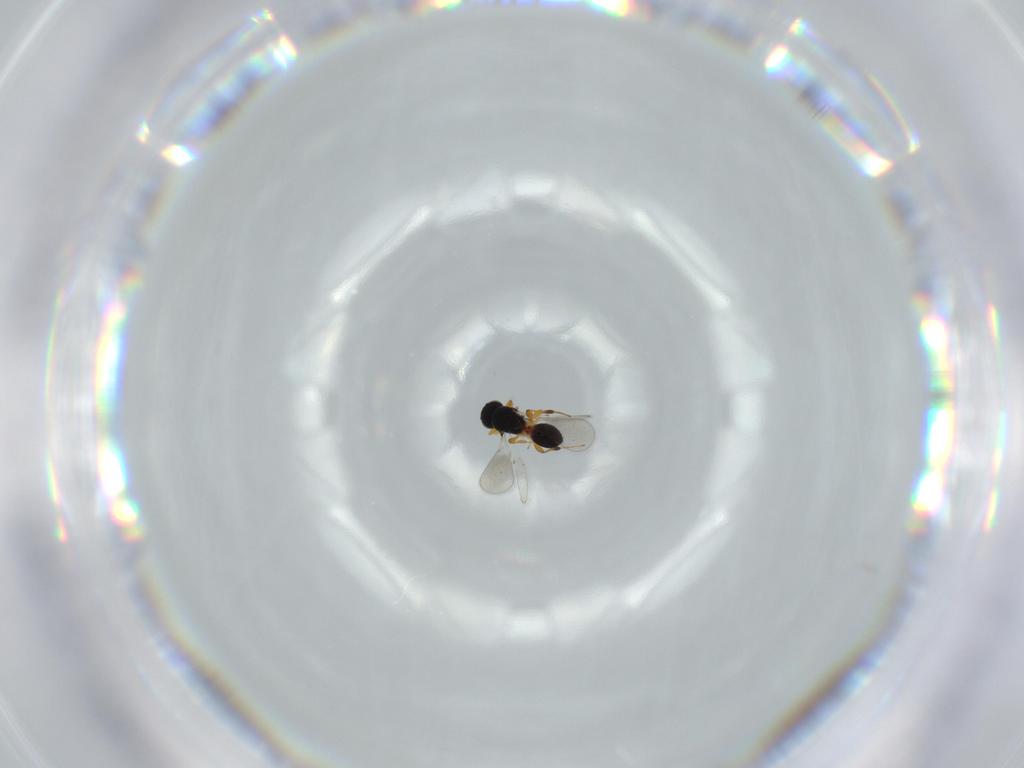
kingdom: Animalia
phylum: Arthropoda
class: Insecta
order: Hymenoptera
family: Platygastridae
